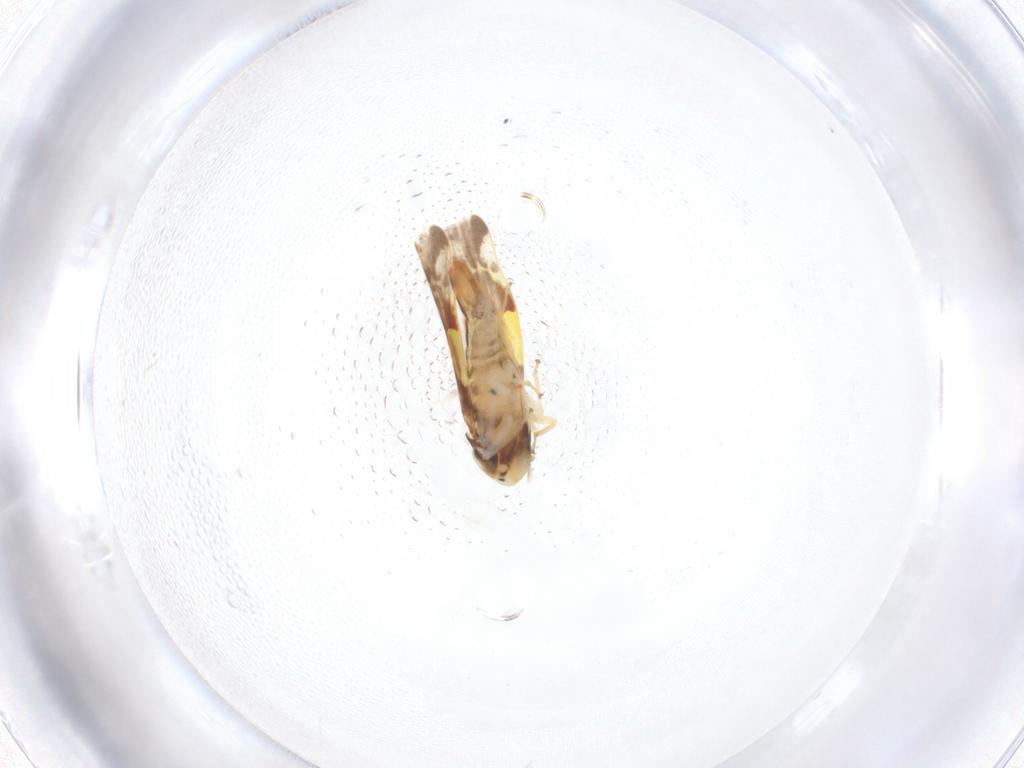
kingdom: Animalia
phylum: Arthropoda
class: Insecta
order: Hemiptera
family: Cicadellidae
